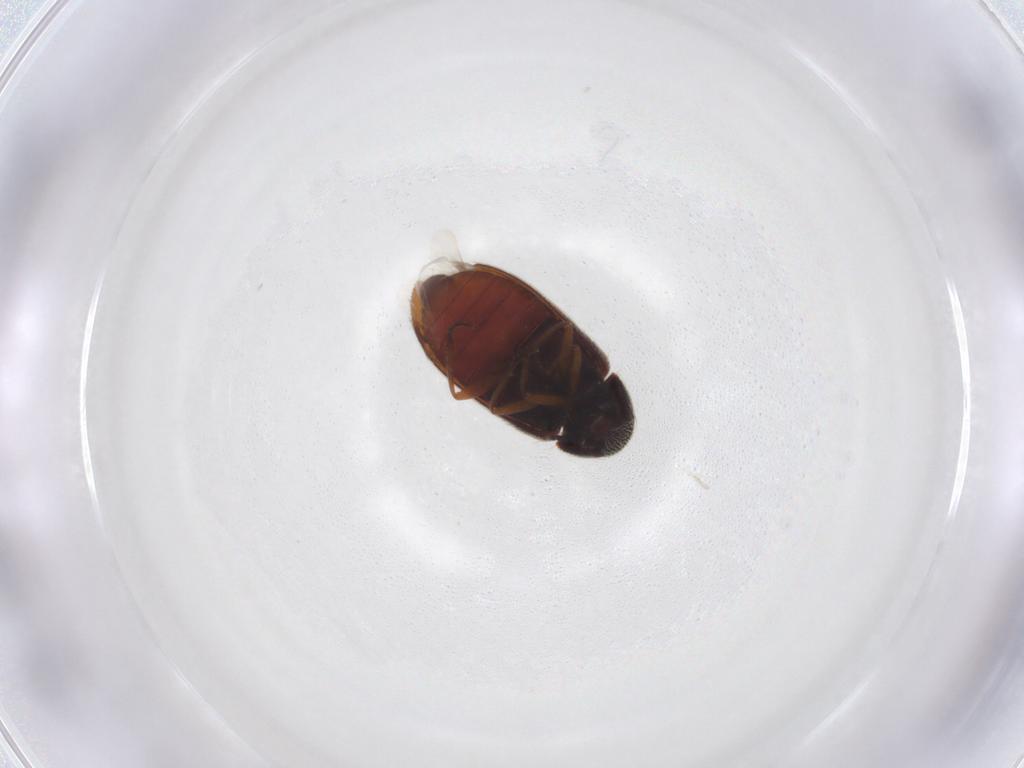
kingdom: Animalia
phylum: Arthropoda
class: Insecta
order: Coleoptera
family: Rhadalidae
